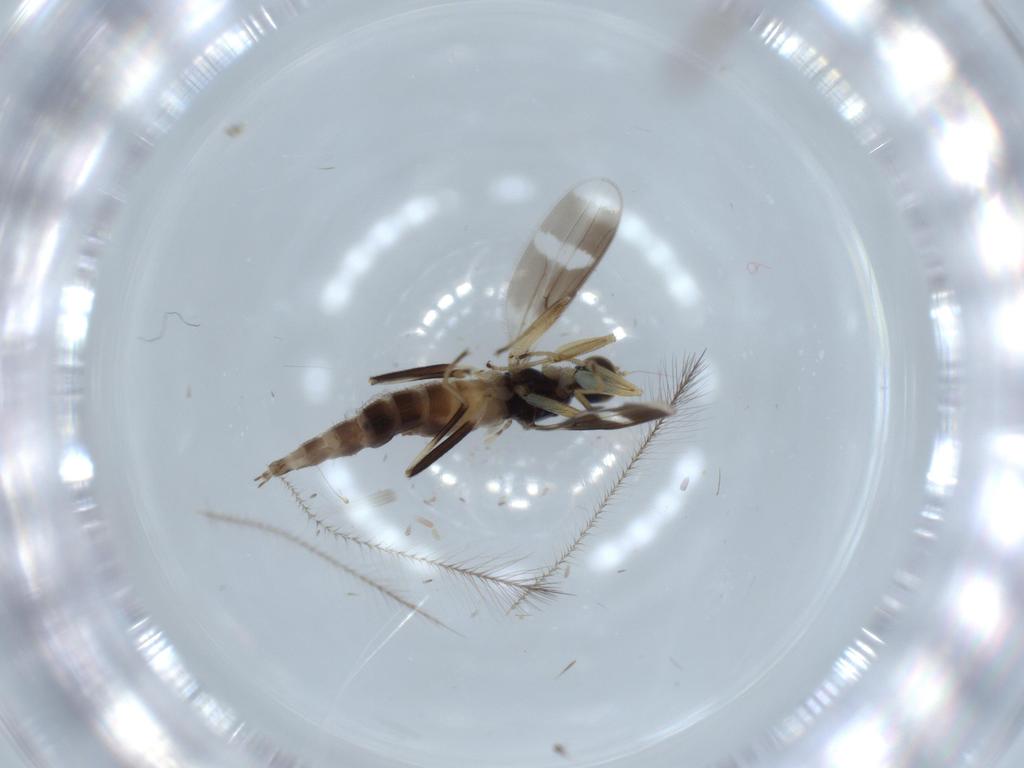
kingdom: Animalia
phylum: Arthropoda
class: Insecta
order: Diptera
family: Hybotidae
